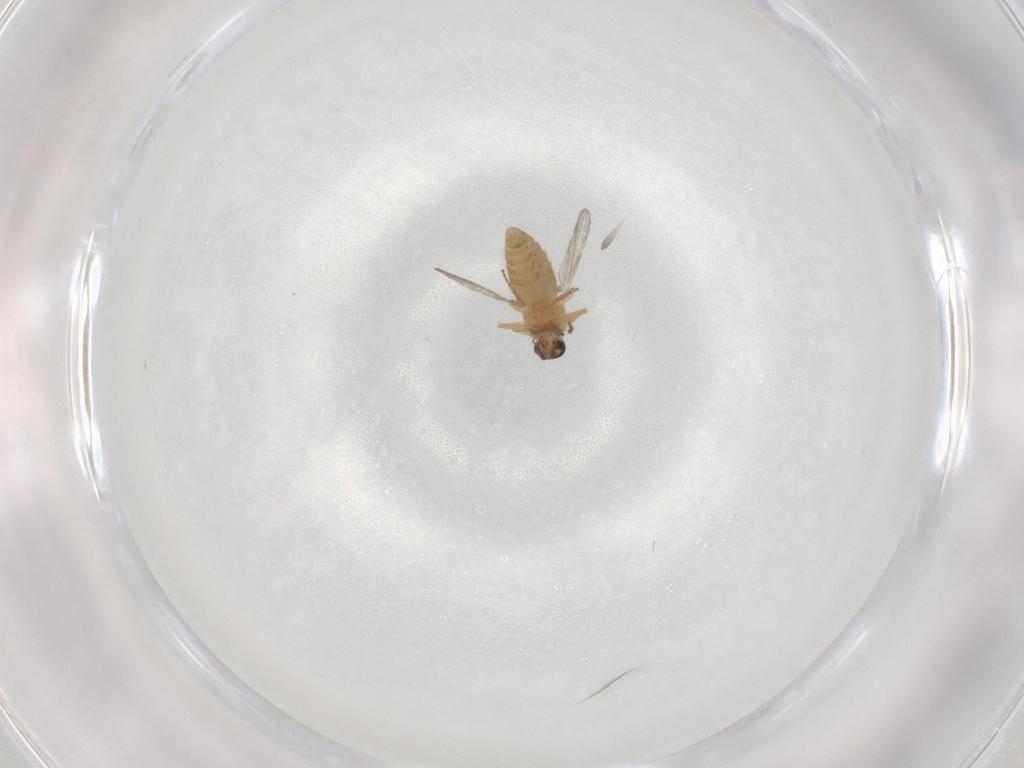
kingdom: Animalia
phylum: Arthropoda
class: Insecta
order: Diptera
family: Ceratopogonidae
